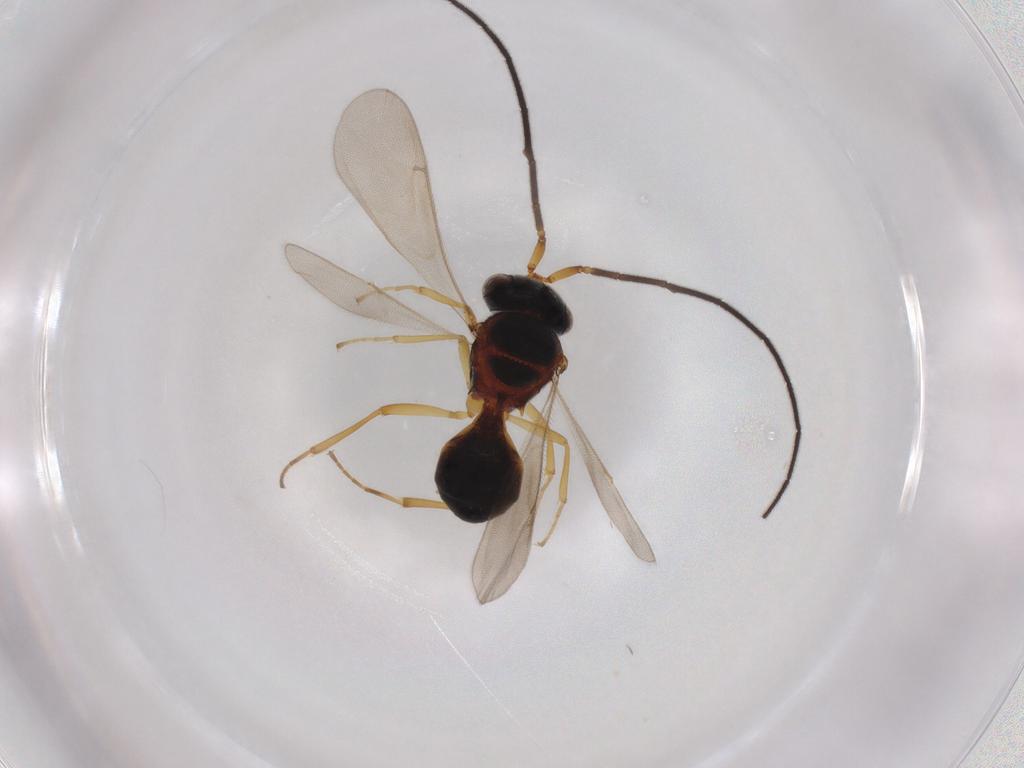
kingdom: Animalia
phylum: Arthropoda
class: Insecta
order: Hymenoptera
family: Scelionidae
